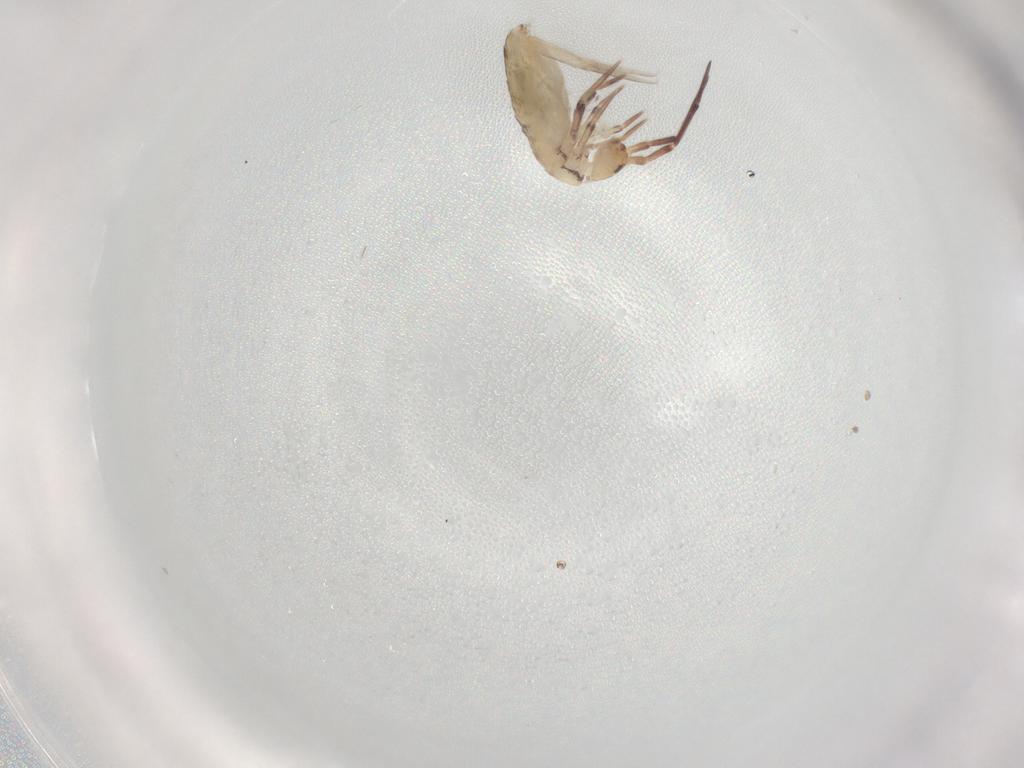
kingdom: Animalia
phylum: Arthropoda
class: Collembola
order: Entomobryomorpha
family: Entomobryidae
